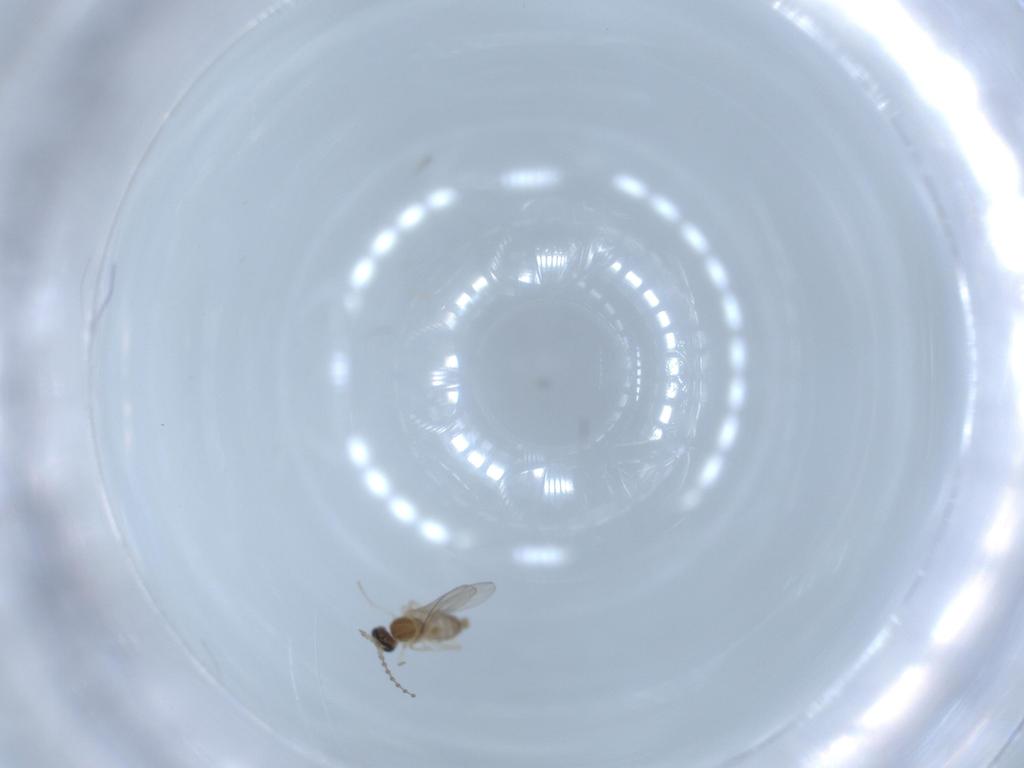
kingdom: Animalia
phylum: Arthropoda
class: Insecta
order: Diptera
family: Cecidomyiidae
